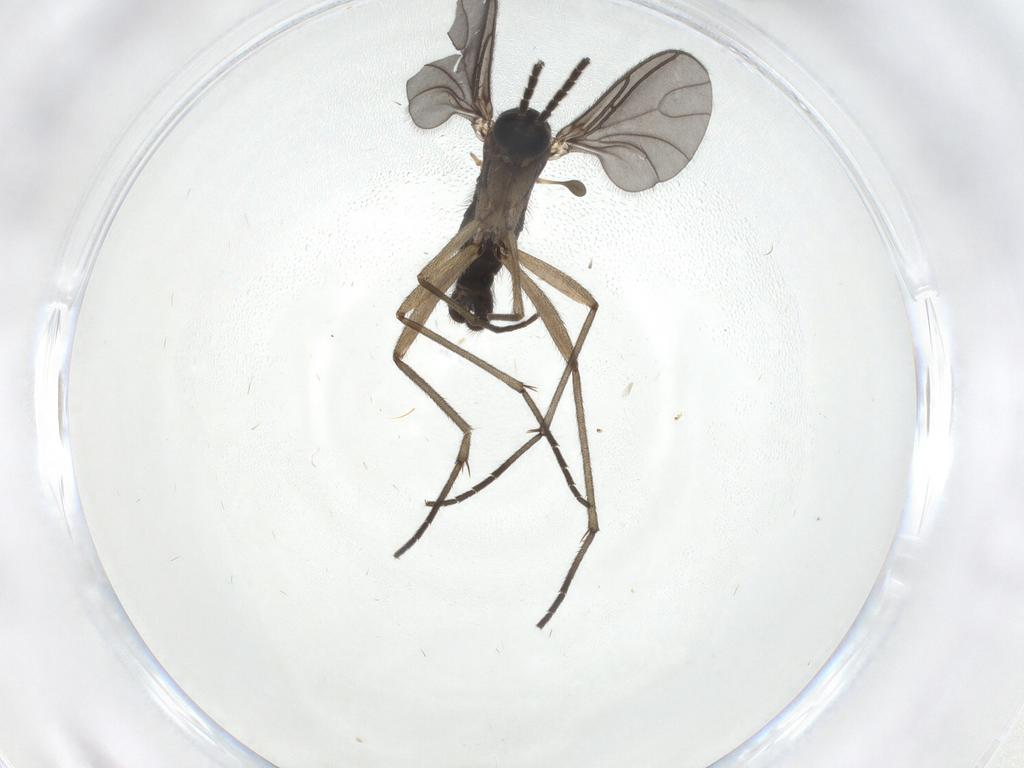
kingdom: Animalia
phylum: Arthropoda
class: Insecta
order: Diptera
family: Sciaridae
